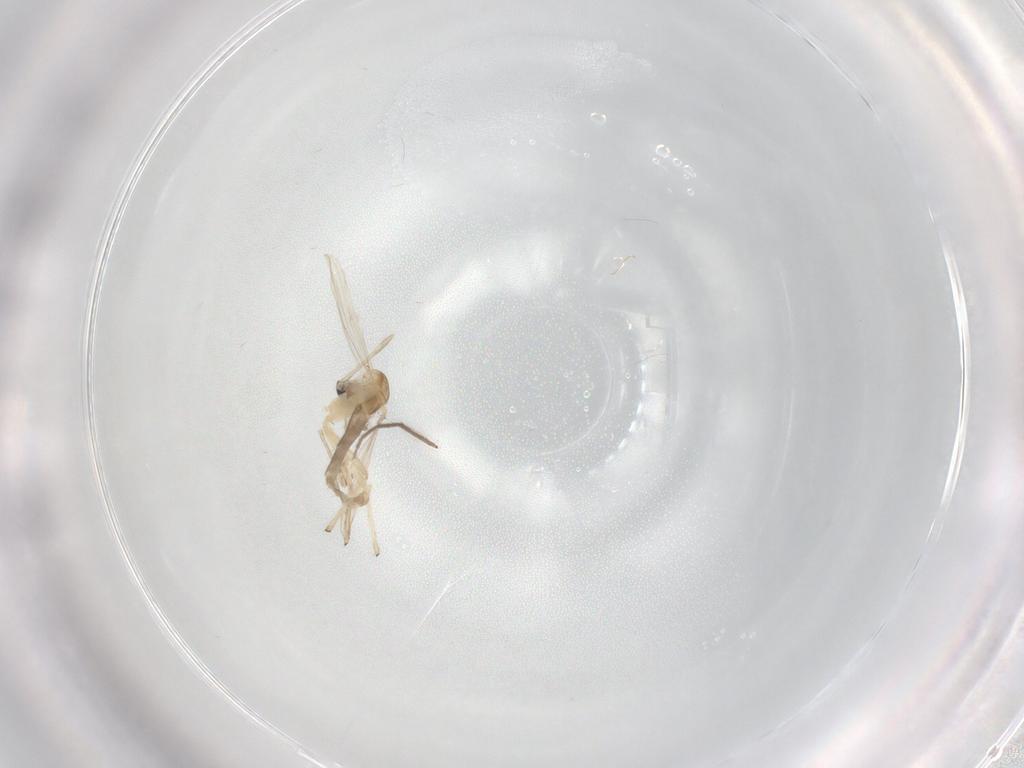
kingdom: Animalia
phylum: Arthropoda
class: Insecta
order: Diptera
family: Chironomidae
